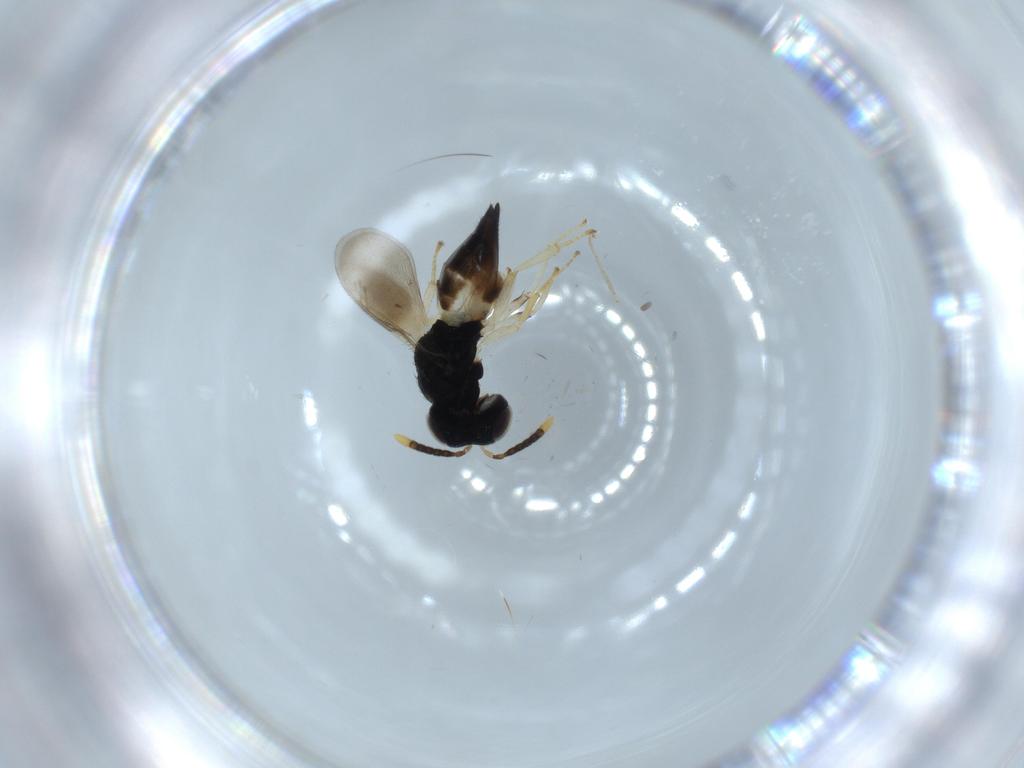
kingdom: Animalia
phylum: Arthropoda
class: Insecta
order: Hymenoptera
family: Pteromalidae
